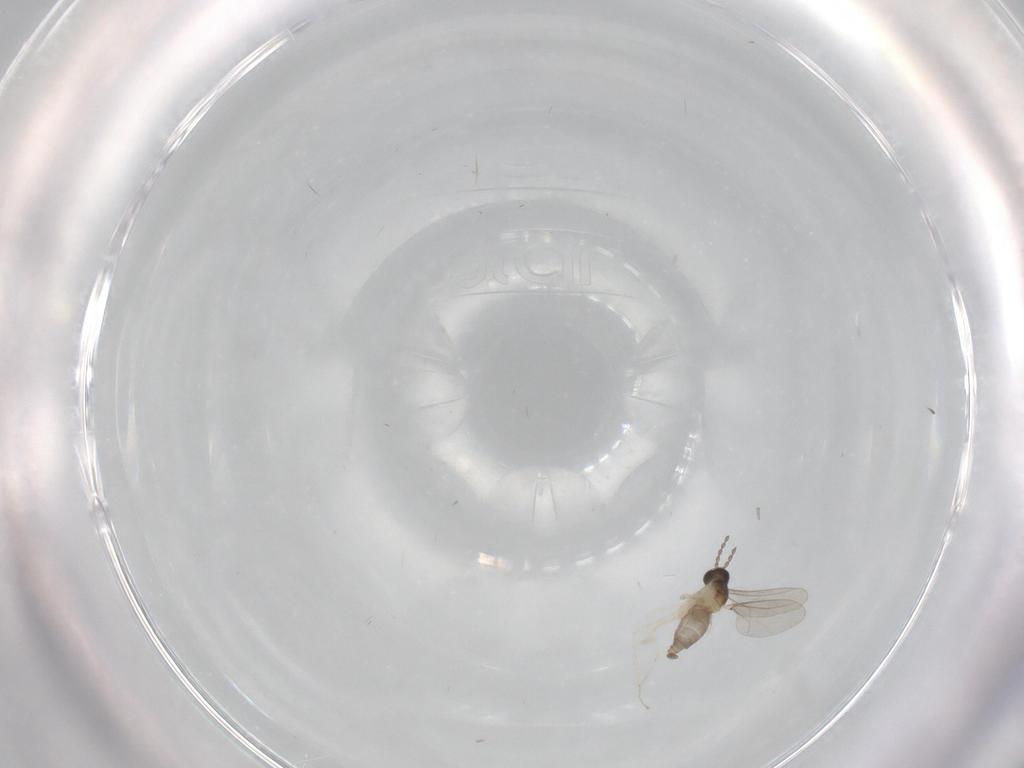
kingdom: Animalia
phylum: Arthropoda
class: Insecta
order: Diptera
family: Cecidomyiidae
